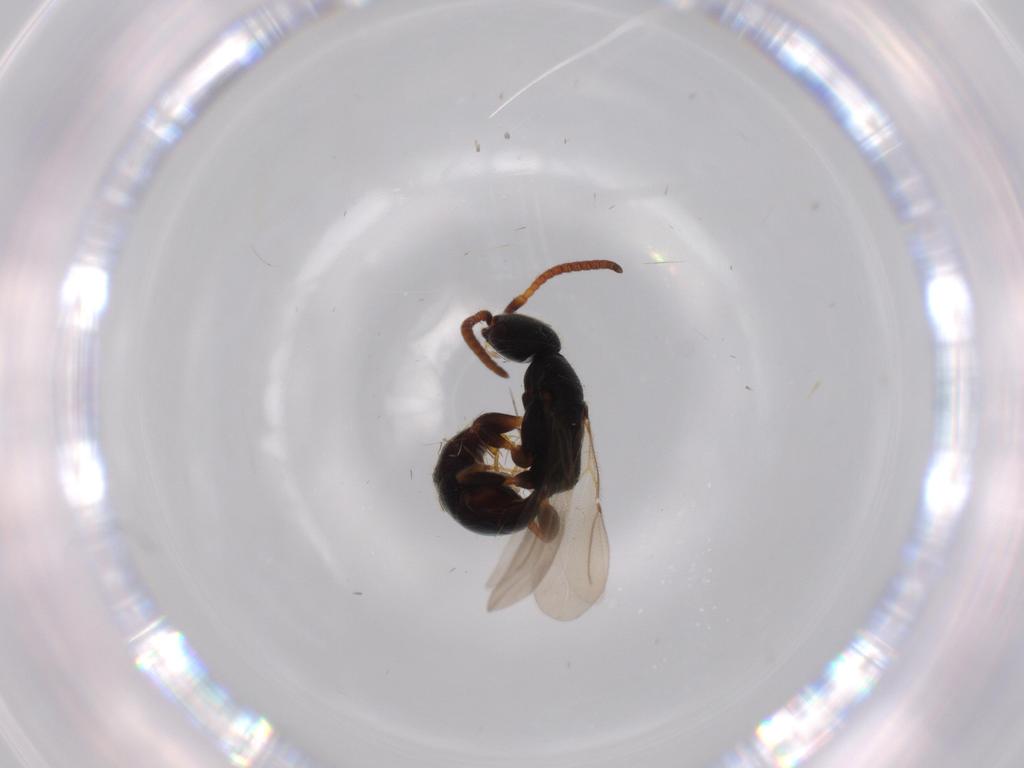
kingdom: Animalia
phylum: Arthropoda
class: Insecta
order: Hymenoptera
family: Bethylidae
